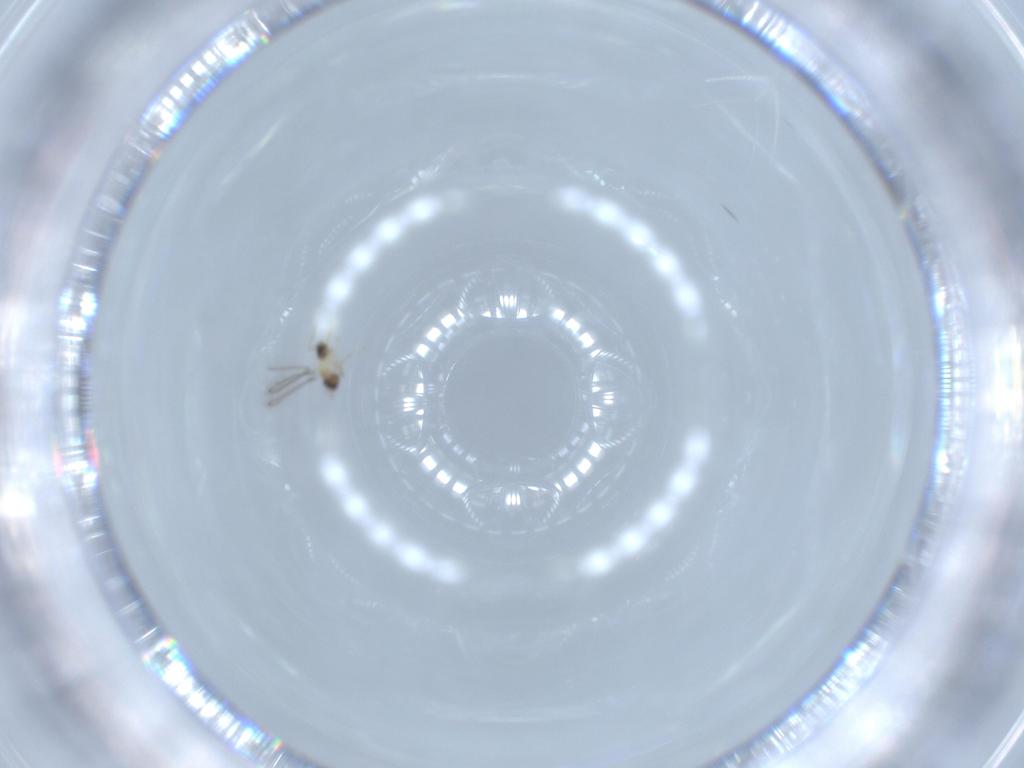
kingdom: Animalia
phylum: Arthropoda
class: Insecta
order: Hymenoptera
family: Mymaridae
